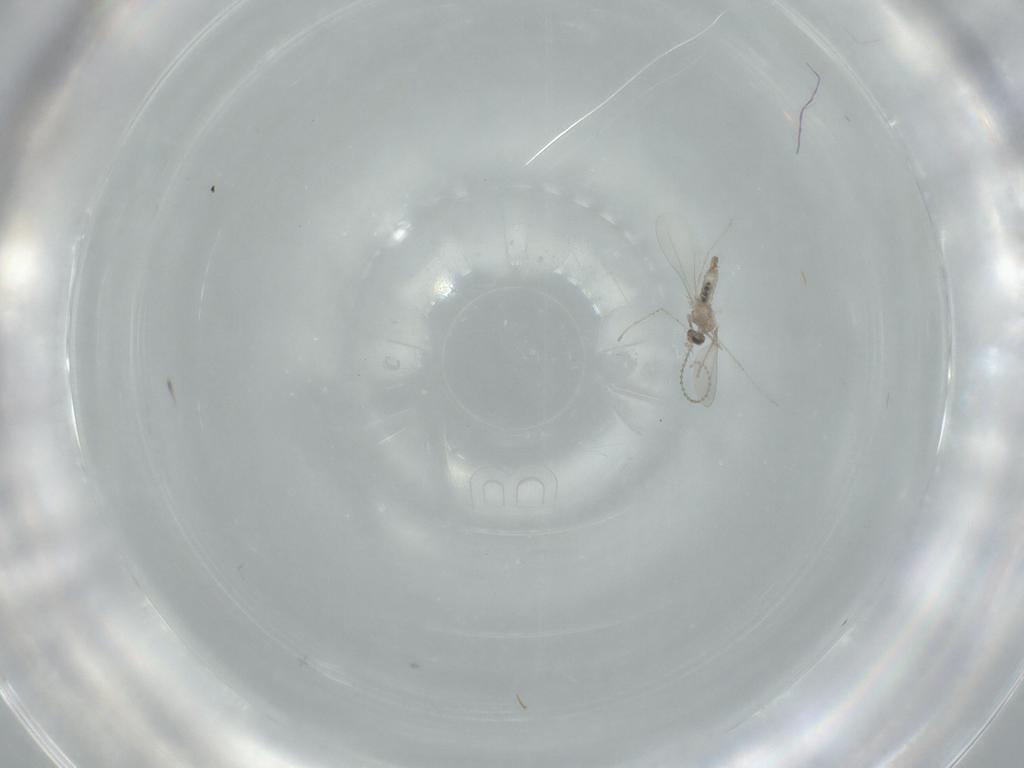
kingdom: Animalia
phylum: Arthropoda
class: Insecta
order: Diptera
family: Cecidomyiidae
